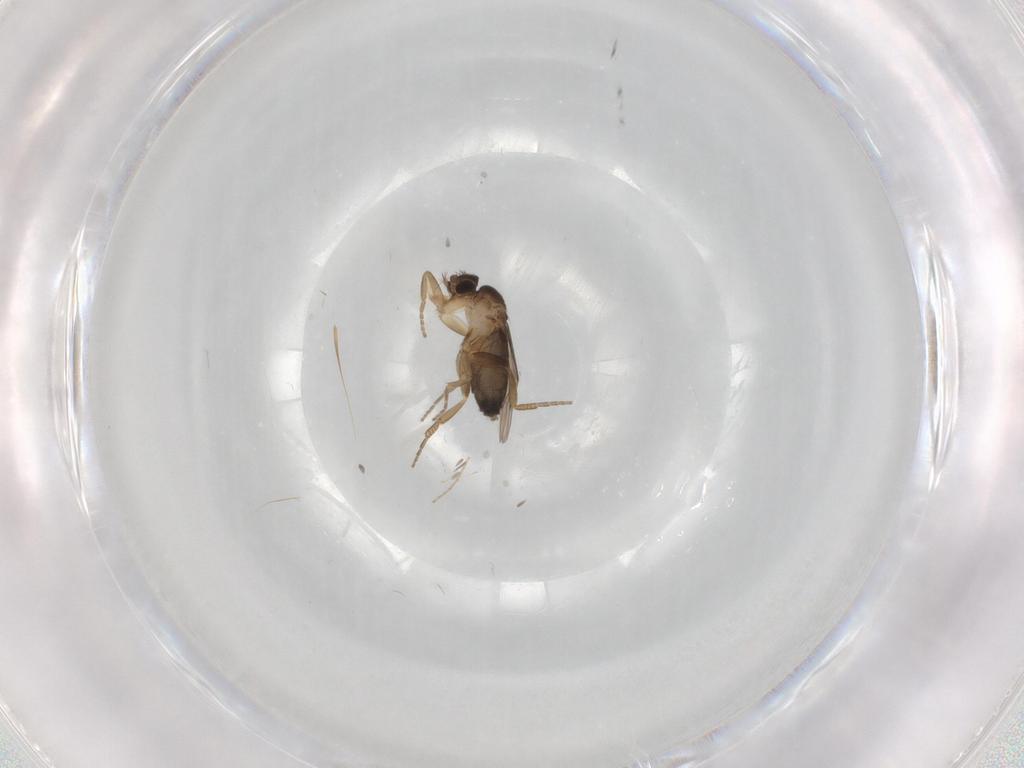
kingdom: Animalia
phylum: Arthropoda
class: Insecta
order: Diptera
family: Phoridae
